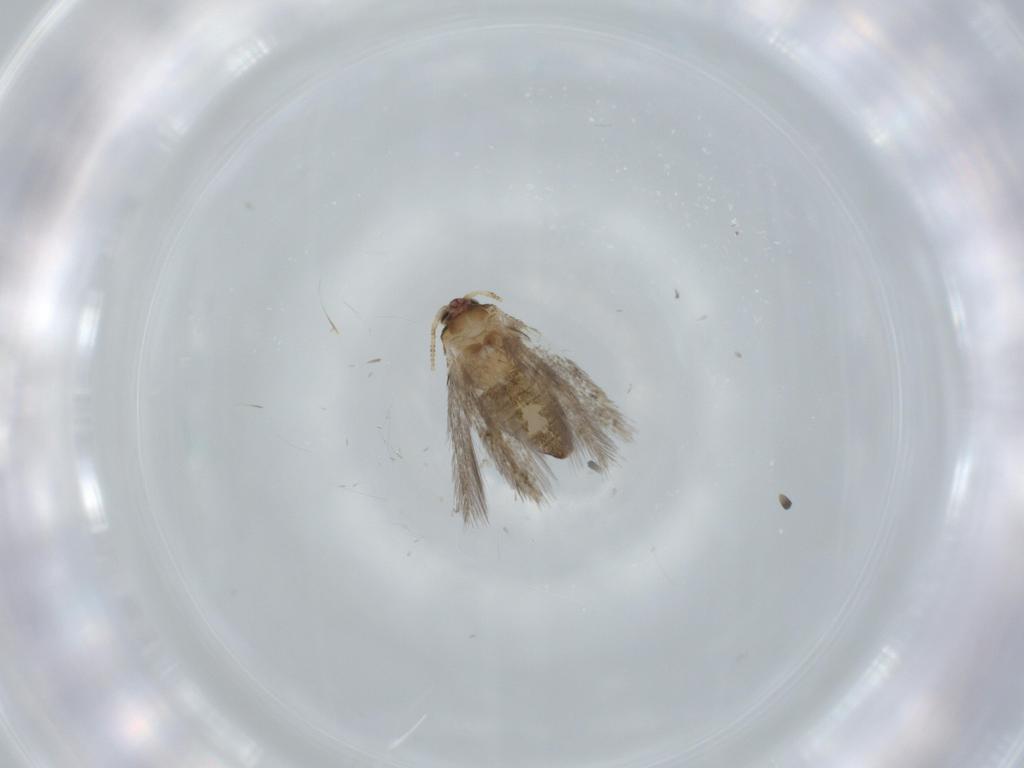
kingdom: Animalia
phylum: Arthropoda
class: Insecta
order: Lepidoptera
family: Nepticulidae
